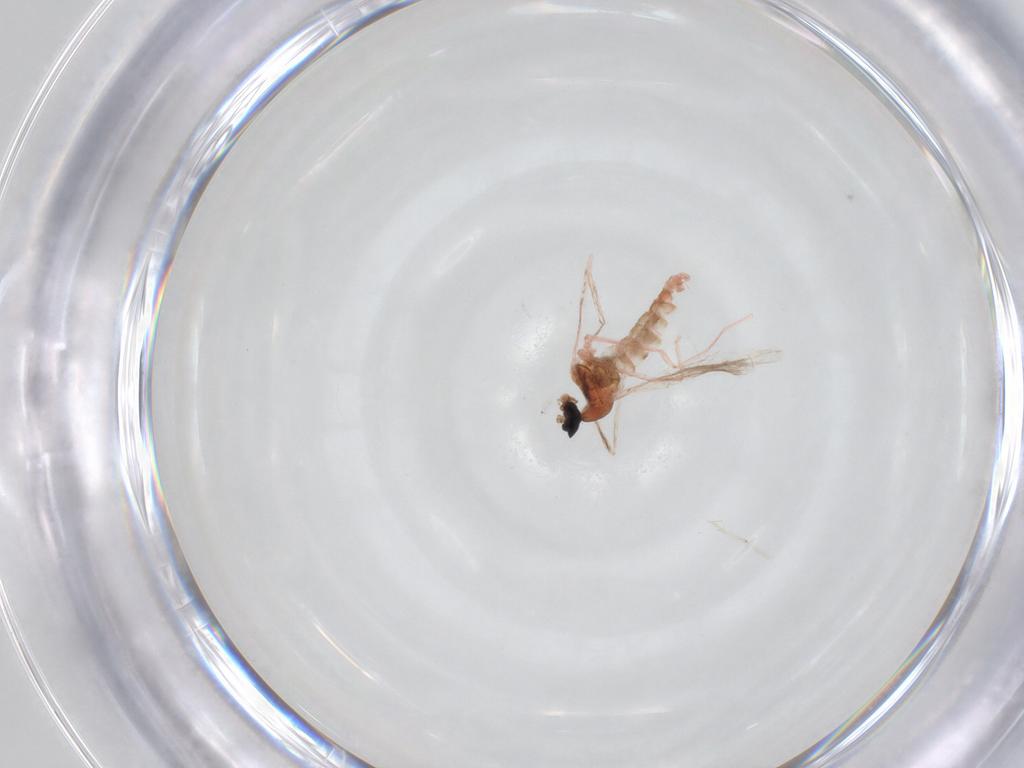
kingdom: Animalia
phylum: Arthropoda
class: Insecta
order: Diptera
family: Cecidomyiidae
